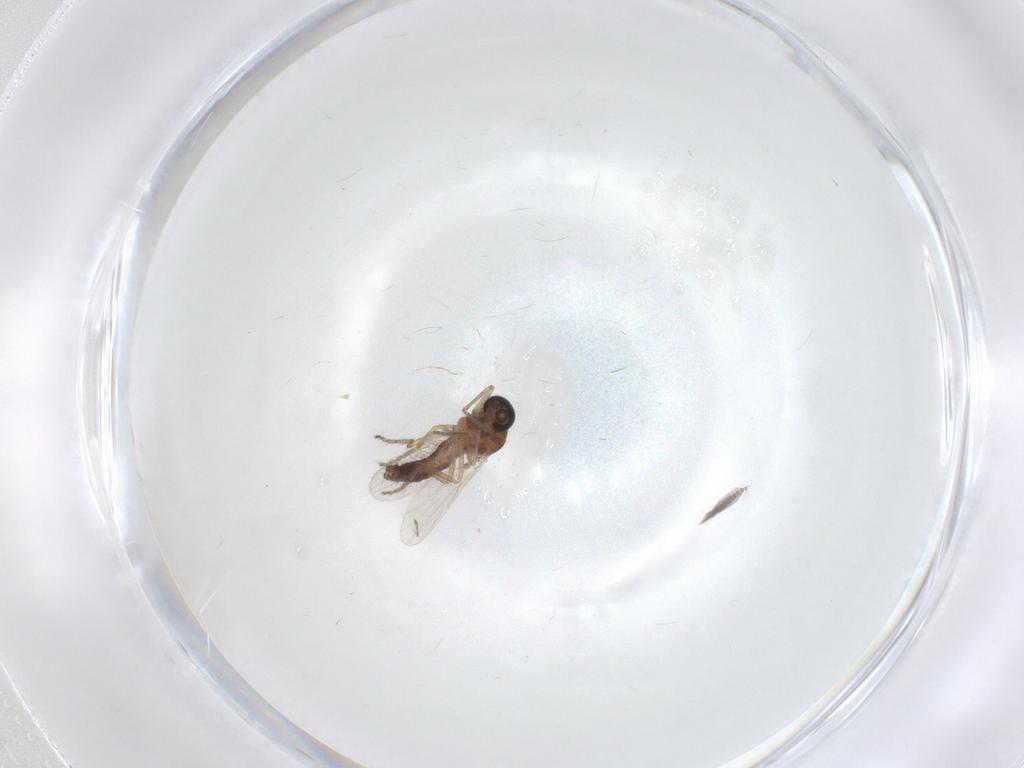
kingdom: Animalia
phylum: Arthropoda
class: Insecta
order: Diptera
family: Ceratopogonidae
